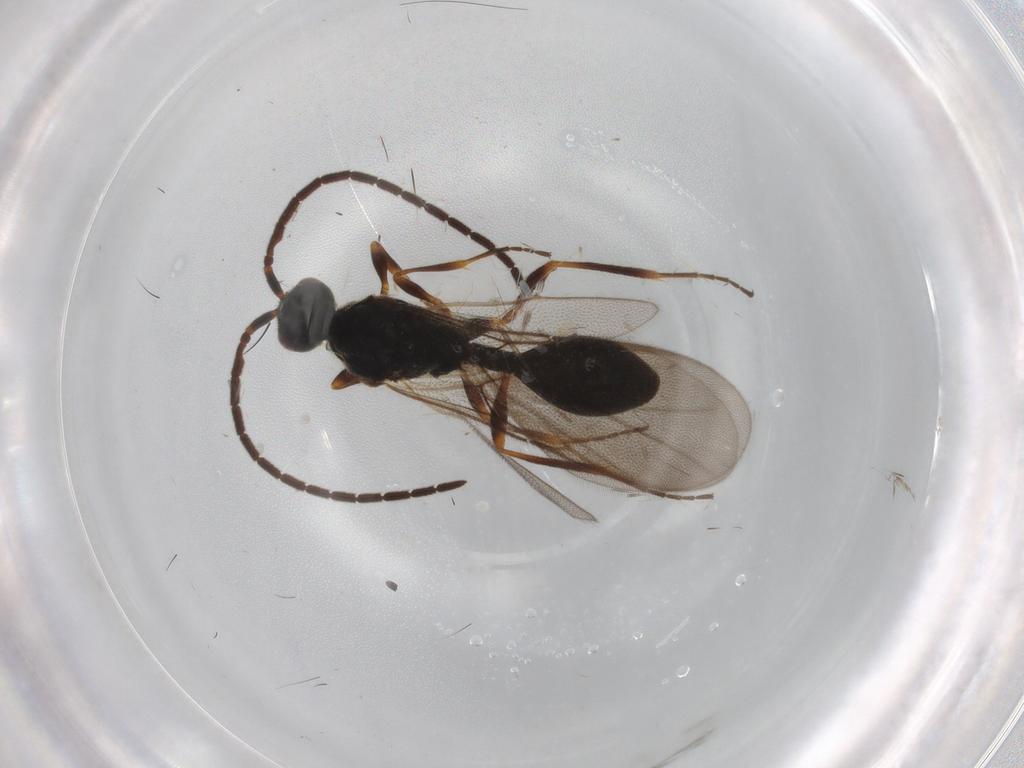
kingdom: Animalia
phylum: Arthropoda
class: Insecta
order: Hymenoptera
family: Diapriidae
